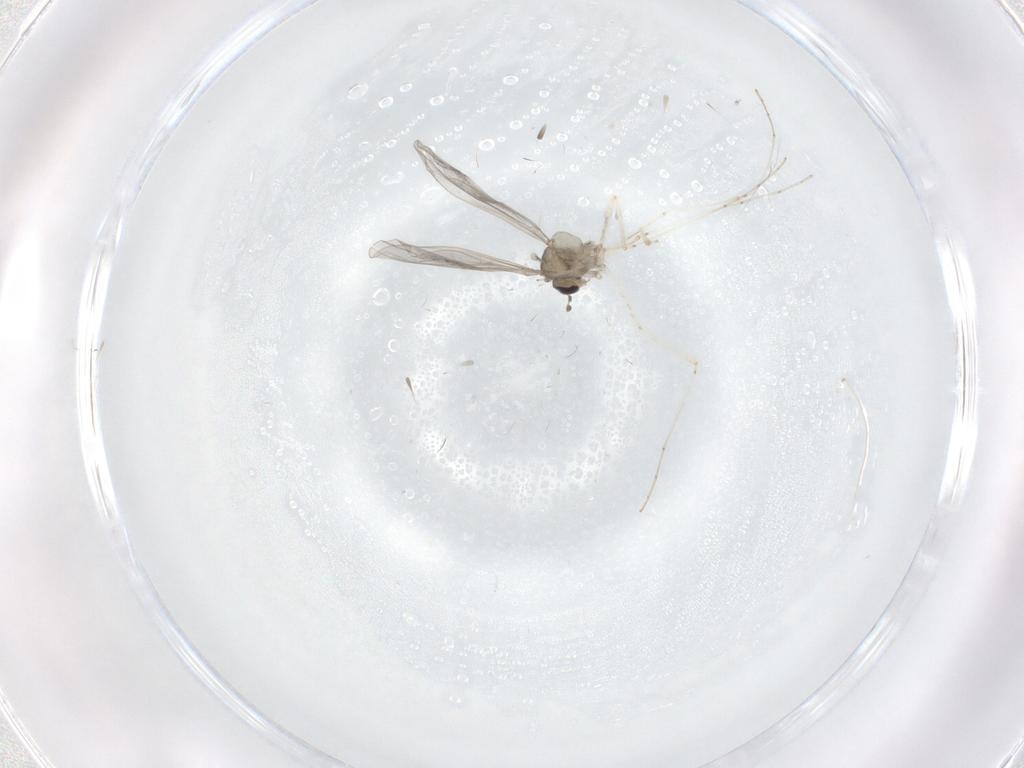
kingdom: Animalia
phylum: Arthropoda
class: Insecta
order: Diptera
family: Cecidomyiidae
